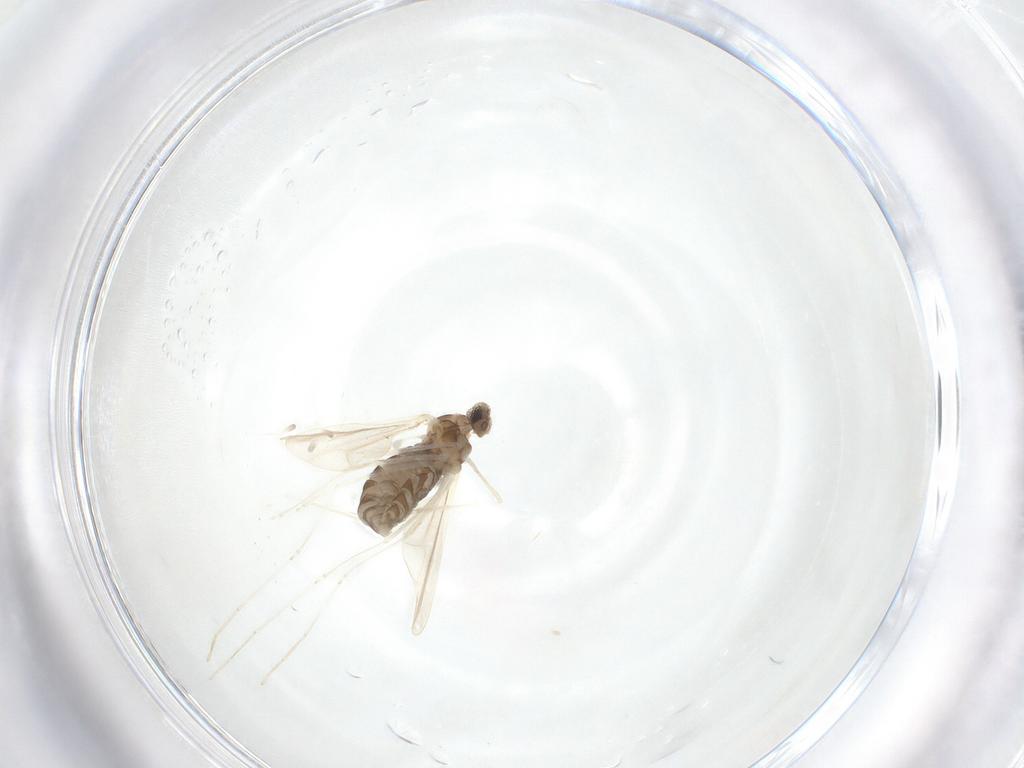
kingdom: Animalia
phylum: Arthropoda
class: Insecta
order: Diptera
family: Cecidomyiidae
